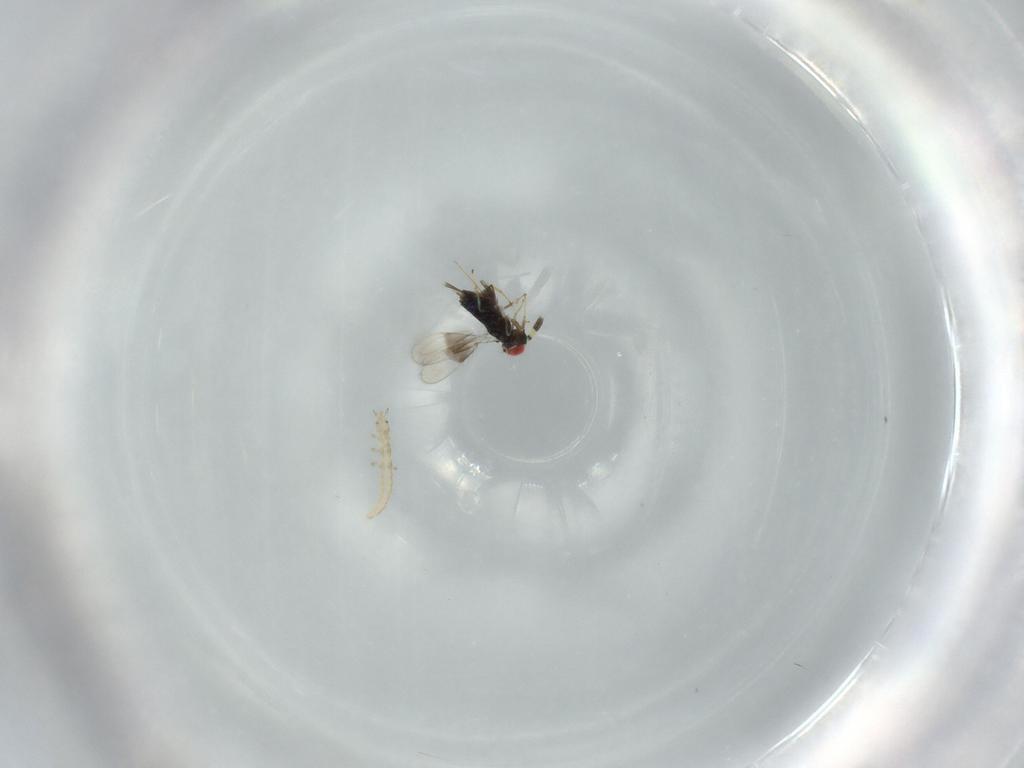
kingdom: Animalia
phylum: Arthropoda
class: Insecta
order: Hymenoptera
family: Azotidae
